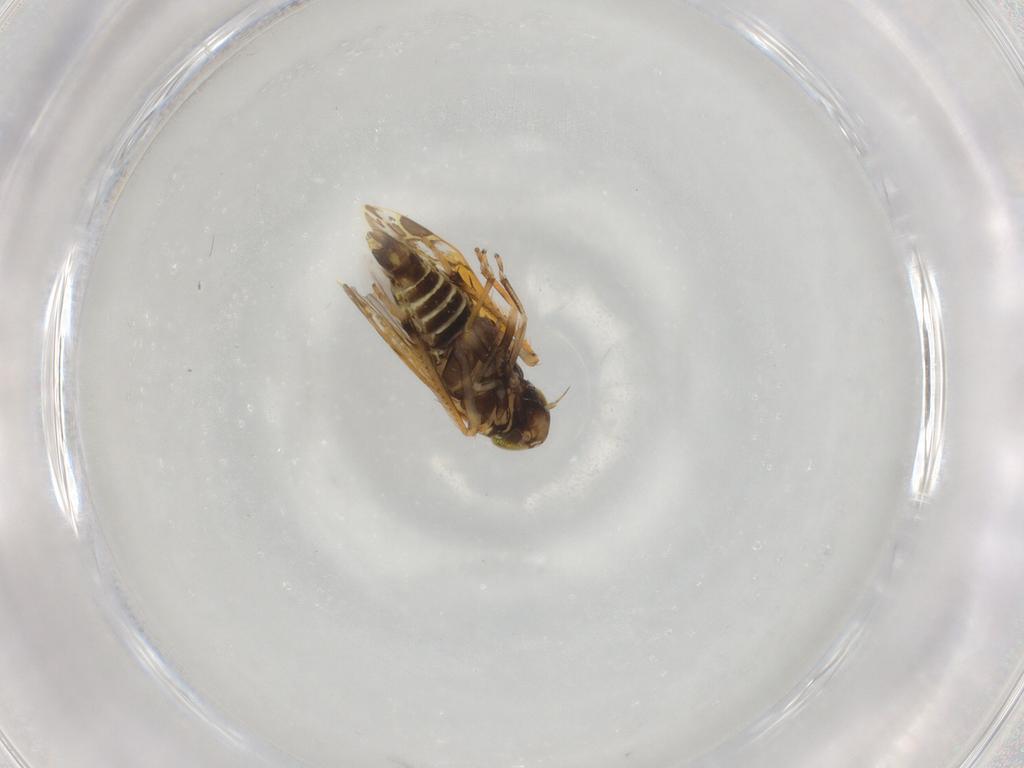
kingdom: Animalia
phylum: Arthropoda
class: Insecta
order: Hemiptera
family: Cicadellidae
